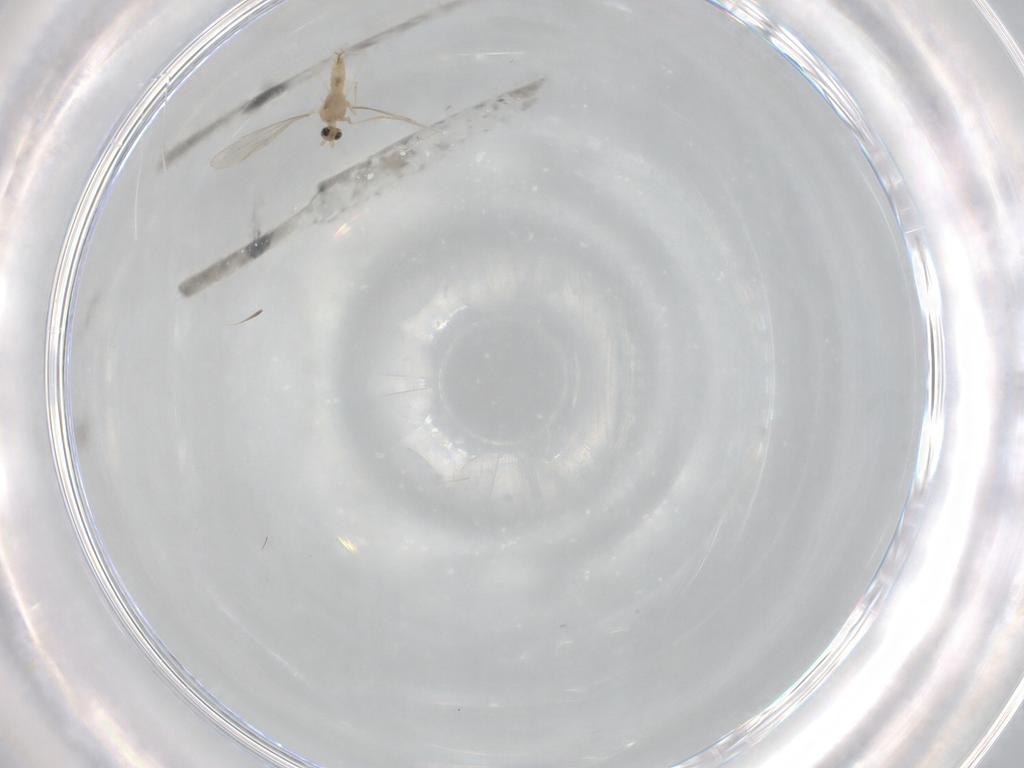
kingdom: Animalia
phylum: Arthropoda
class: Insecta
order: Diptera
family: Cecidomyiidae
